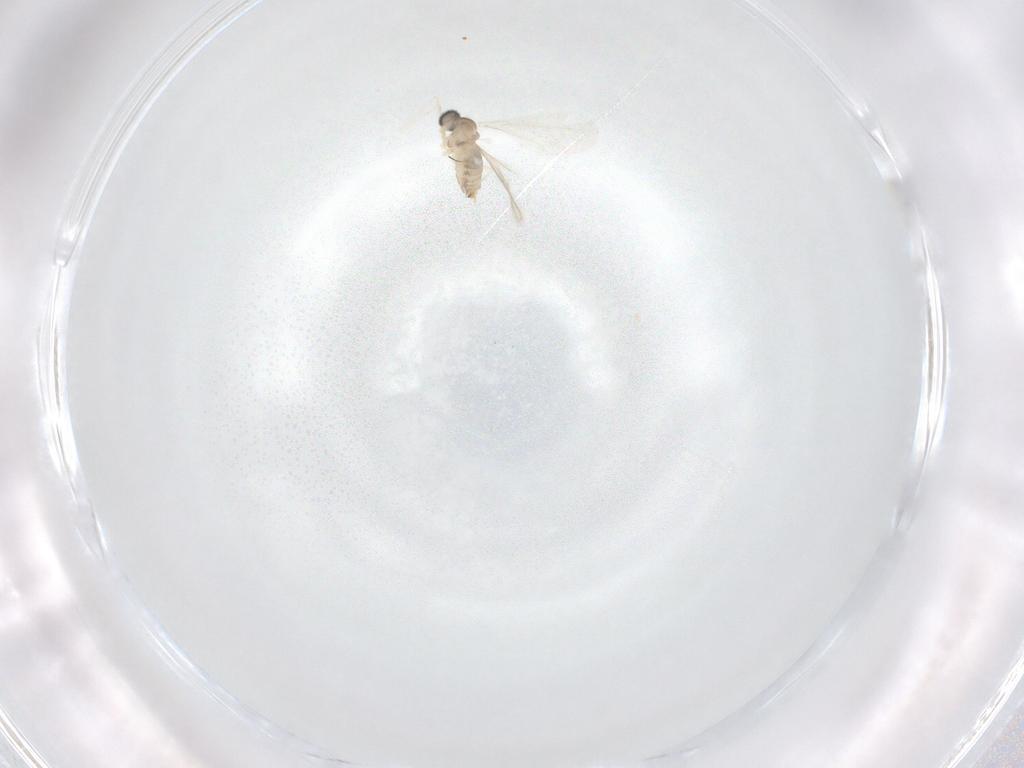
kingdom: Animalia
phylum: Arthropoda
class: Insecta
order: Diptera
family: Cecidomyiidae
